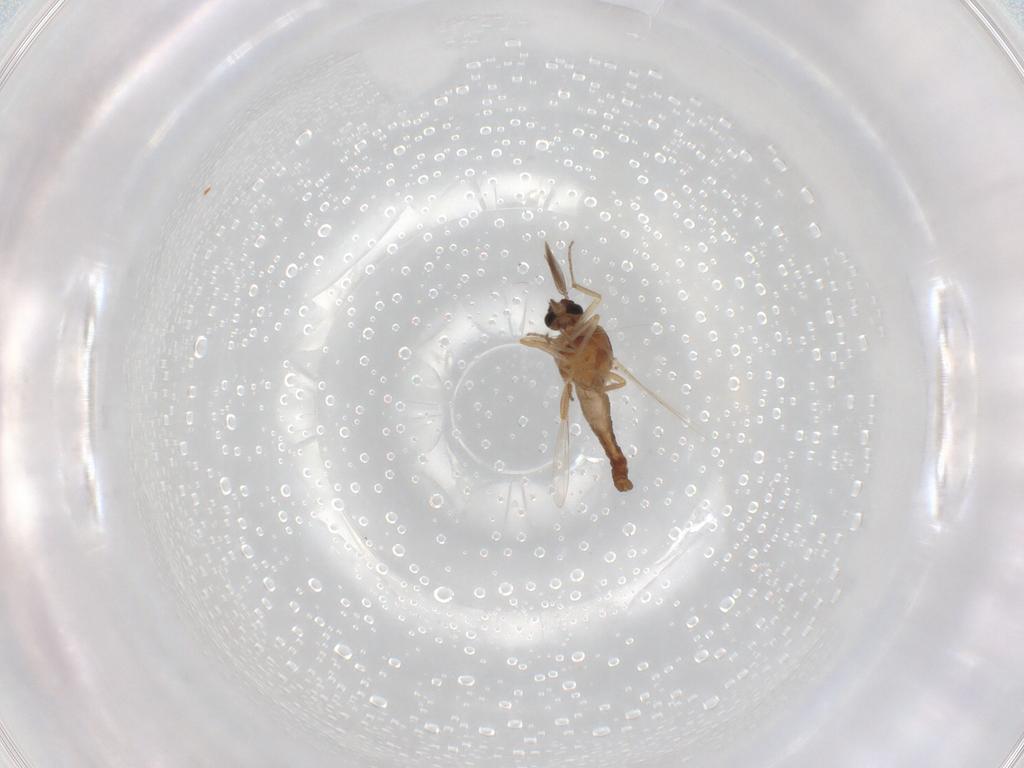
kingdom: Animalia
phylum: Arthropoda
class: Insecta
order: Diptera
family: Ceratopogonidae
